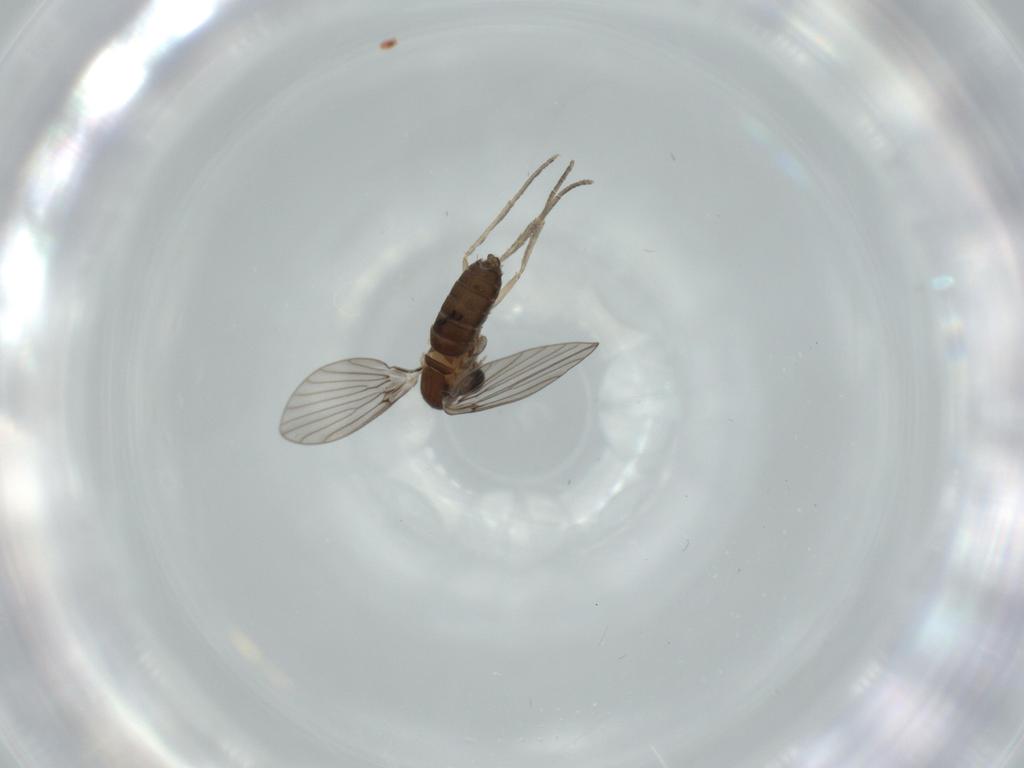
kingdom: Animalia
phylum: Arthropoda
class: Insecta
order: Diptera
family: Psychodidae
